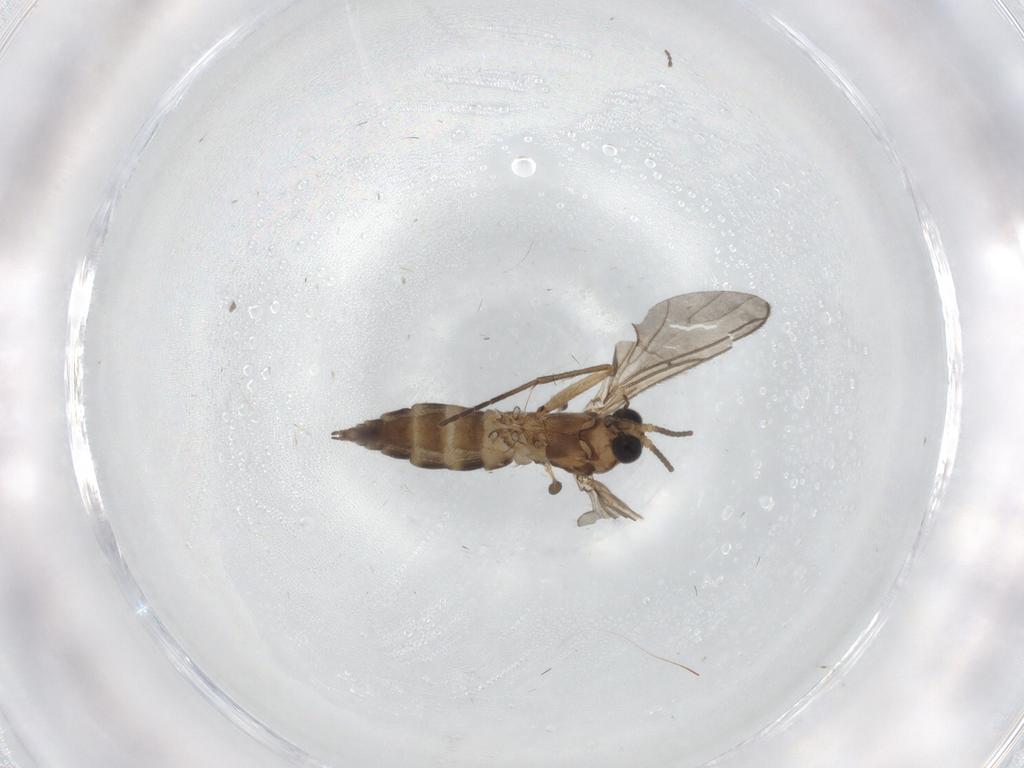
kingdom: Animalia
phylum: Arthropoda
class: Insecta
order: Diptera
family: Sciaridae
